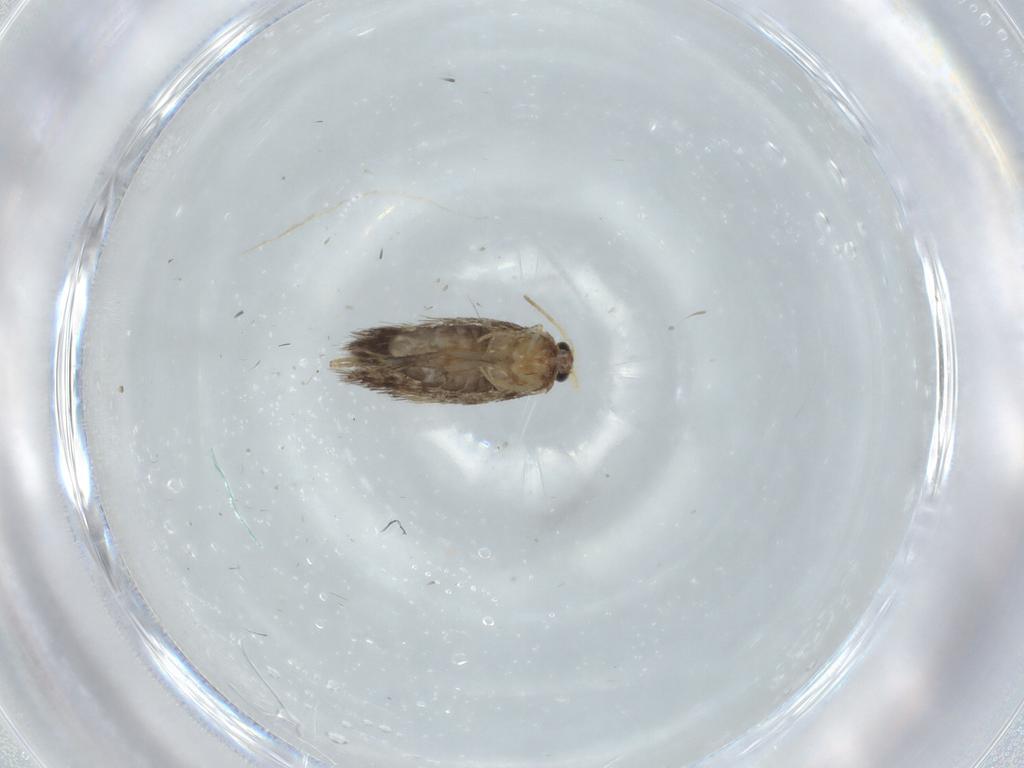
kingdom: Animalia
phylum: Arthropoda
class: Insecta
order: Lepidoptera
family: Nepticulidae
